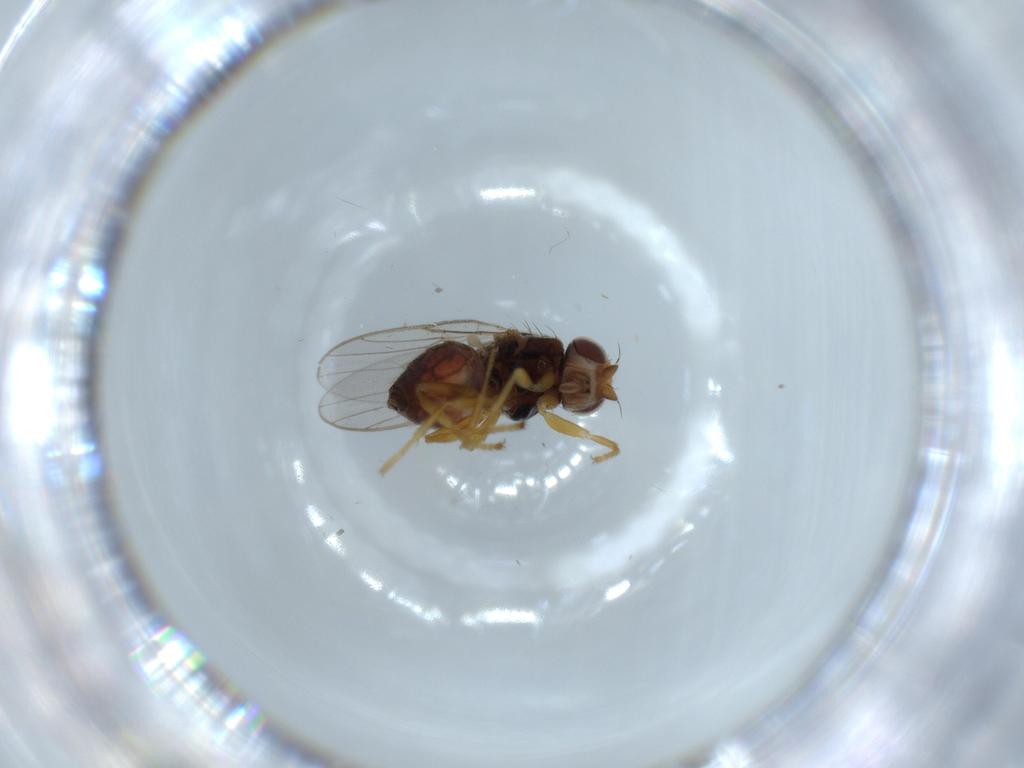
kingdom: Animalia
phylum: Arthropoda
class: Insecta
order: Diptera
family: Chloropidae
